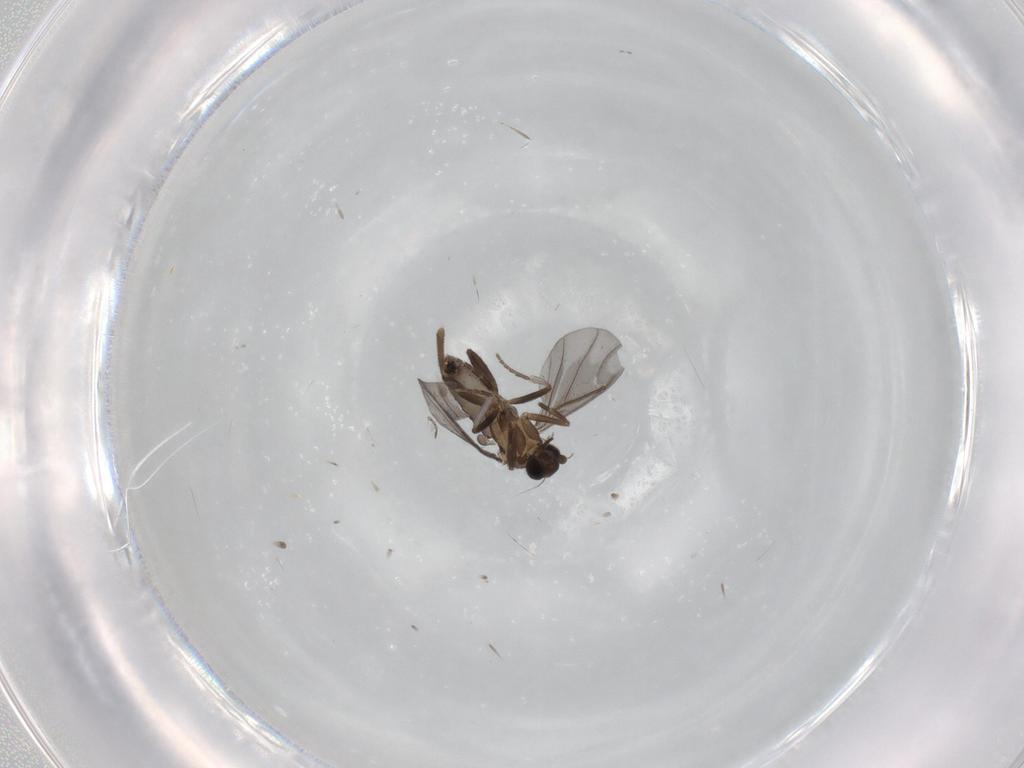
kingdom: Animalia
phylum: Arthropoda
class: Insecta
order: Diptera
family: Phoridae
